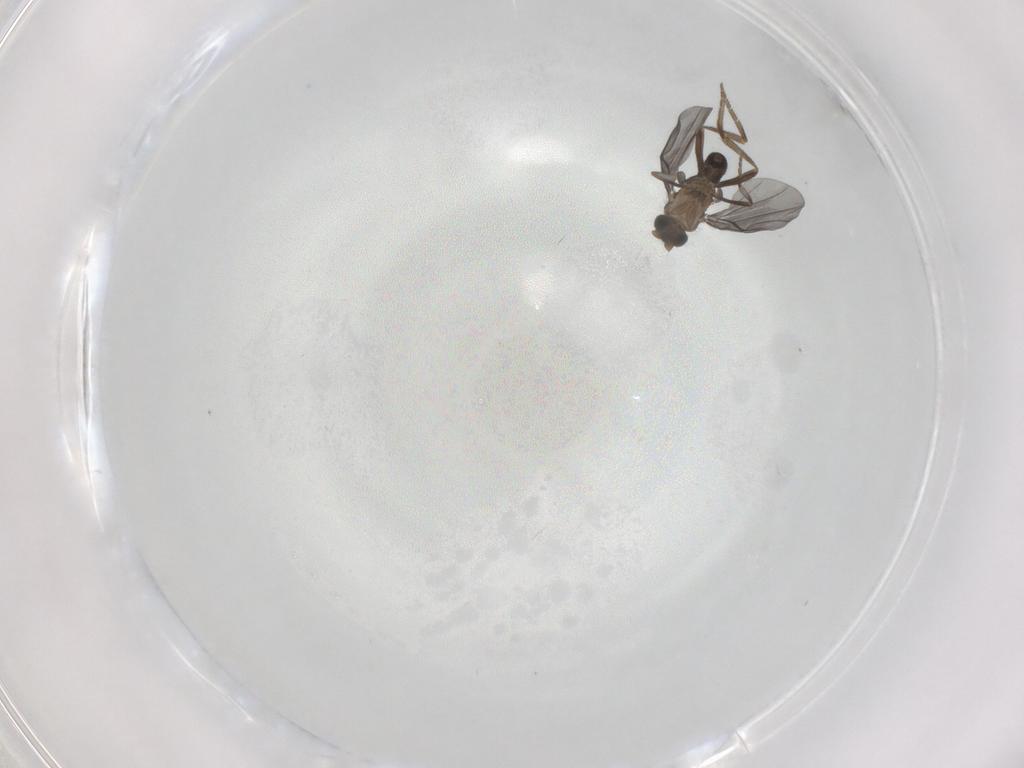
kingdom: Animalia
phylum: Arthropoda
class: Insecta
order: Diptera
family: Phoridae
